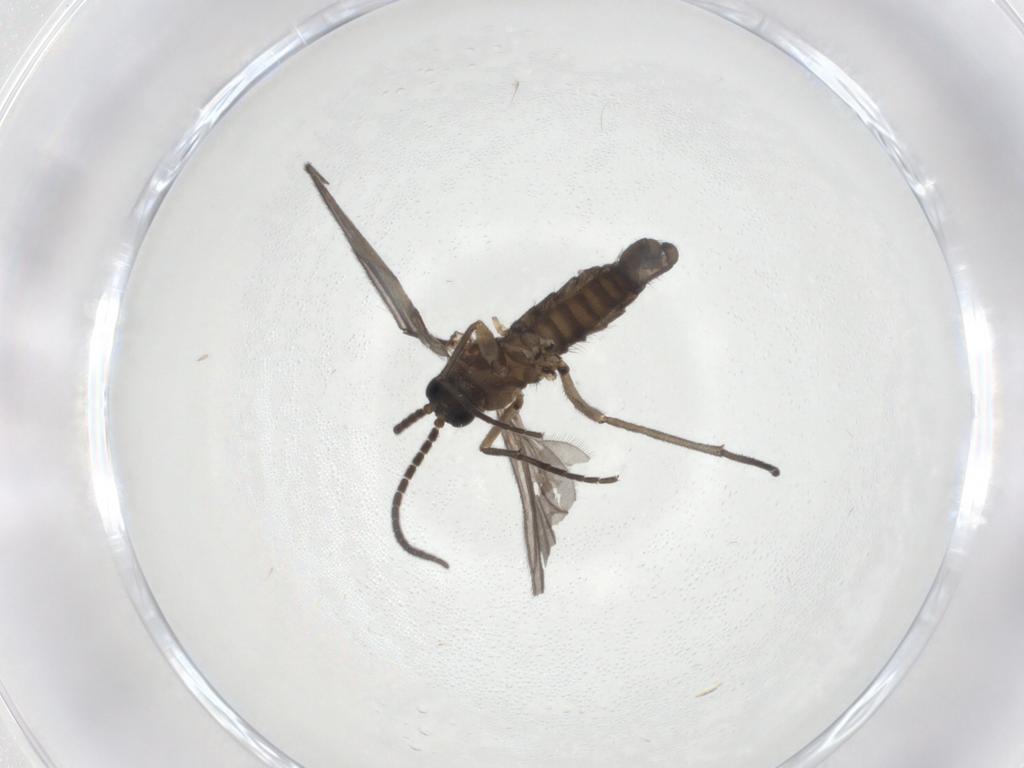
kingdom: Animalia
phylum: Arthropoda
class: Insecta
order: Diptera
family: Sciaridae
